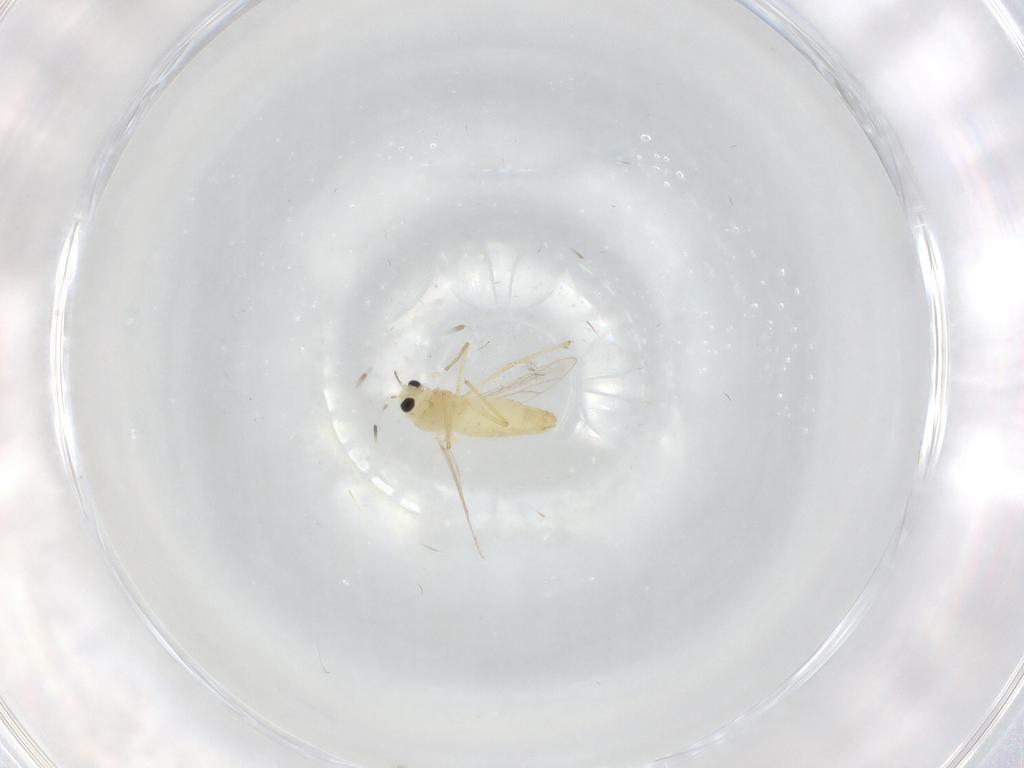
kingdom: Animalia
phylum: Arthropoda
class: Insecta
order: Diptera
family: Chironomidae
